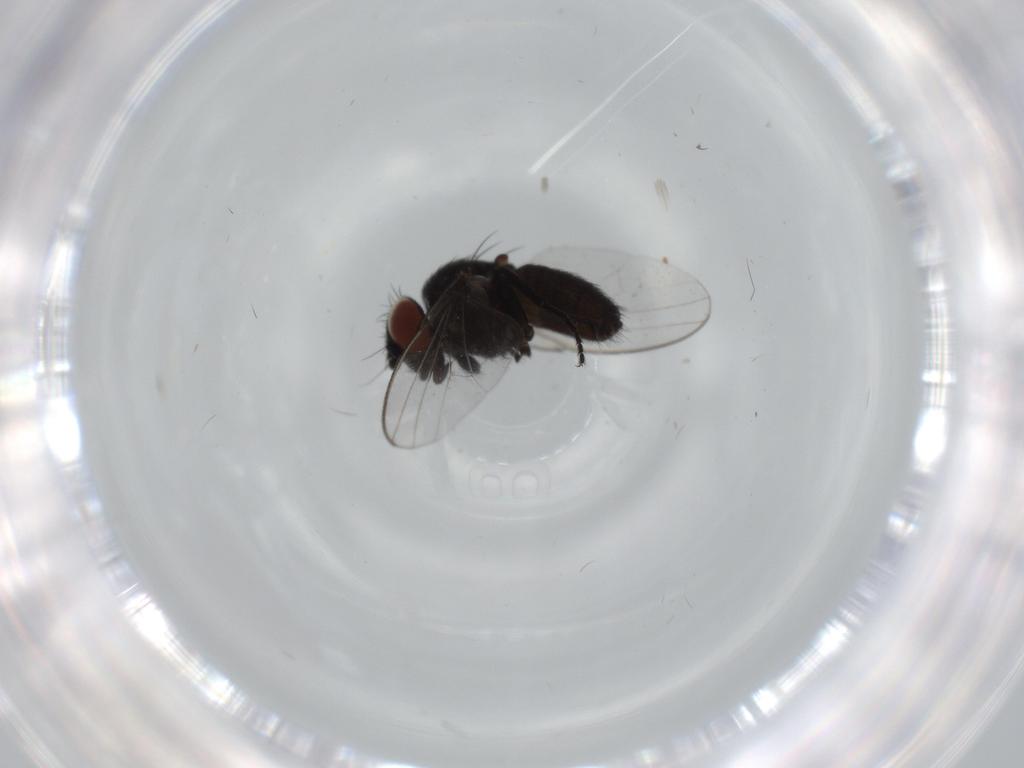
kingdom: Animalia
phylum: Arthropoda
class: Insecta
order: Diptera
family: Milichiidae
